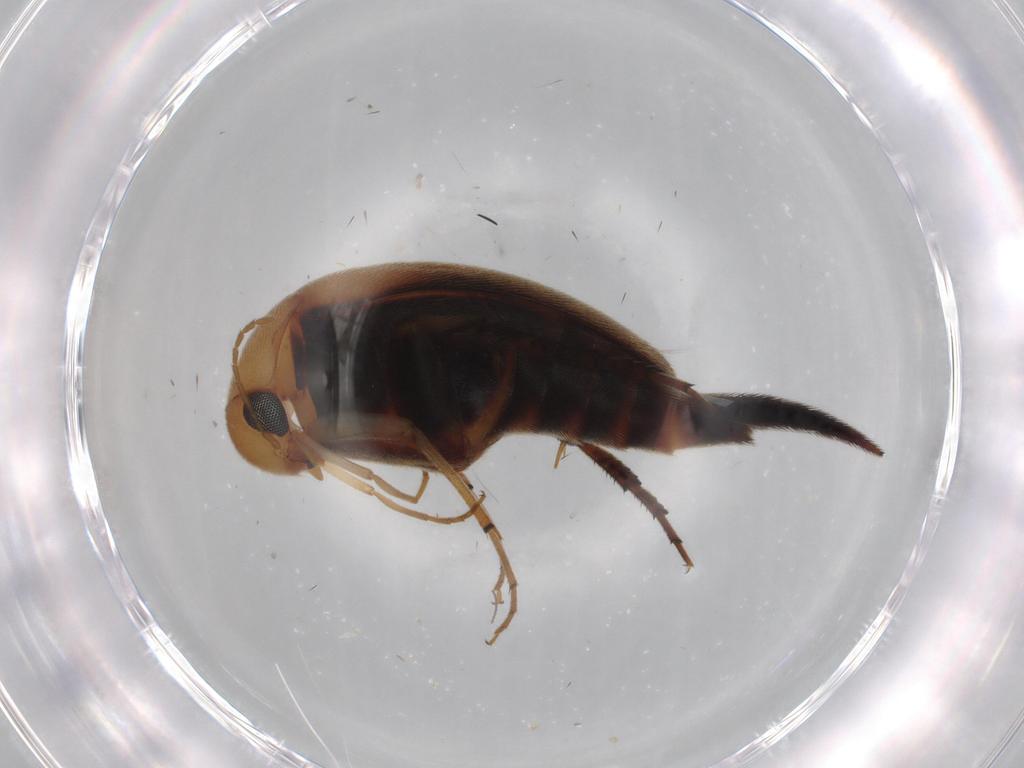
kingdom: Animalia
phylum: Arthropoda
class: Insecta
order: Coleoptera
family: Mordellidae
